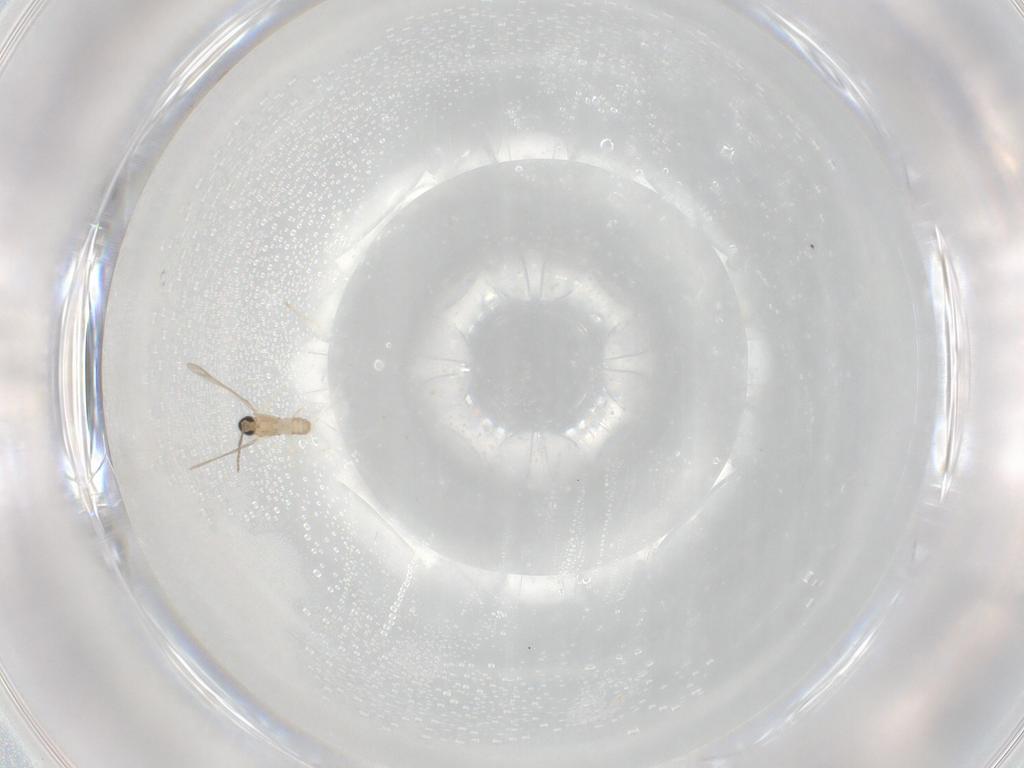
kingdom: Animalia
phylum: Arthropoda
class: Insecta
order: Diptera
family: Cecidomyiidae
